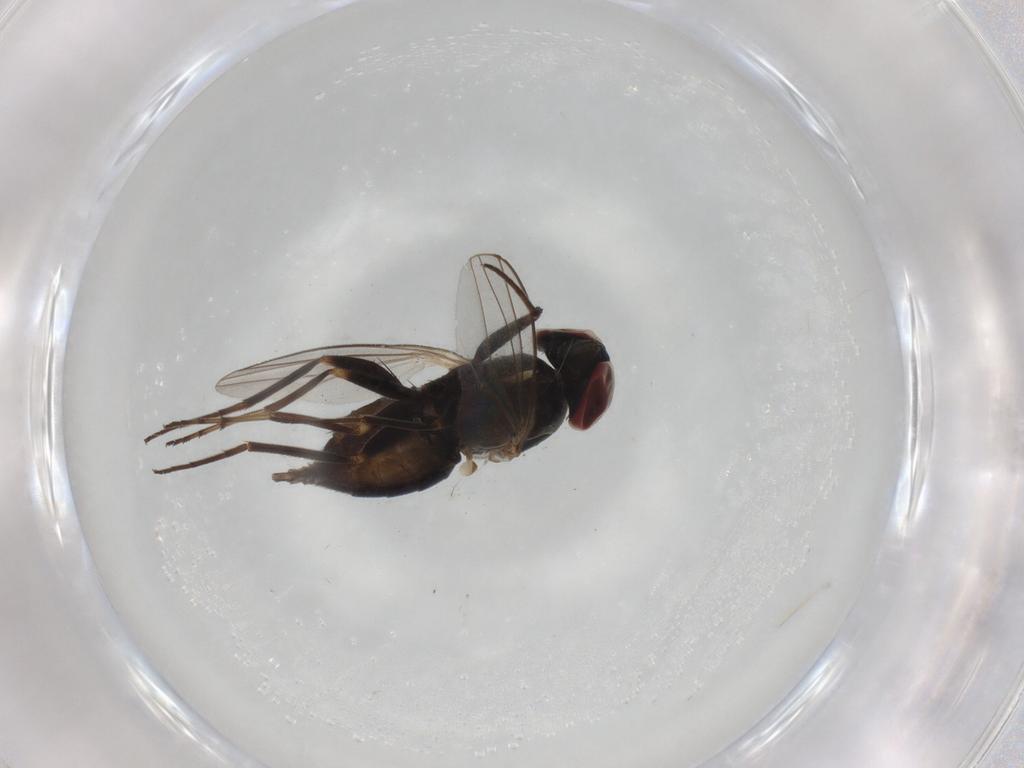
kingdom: Animalia
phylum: Arthropoda
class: Insecta
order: Diptera
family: Dolichopodidae
